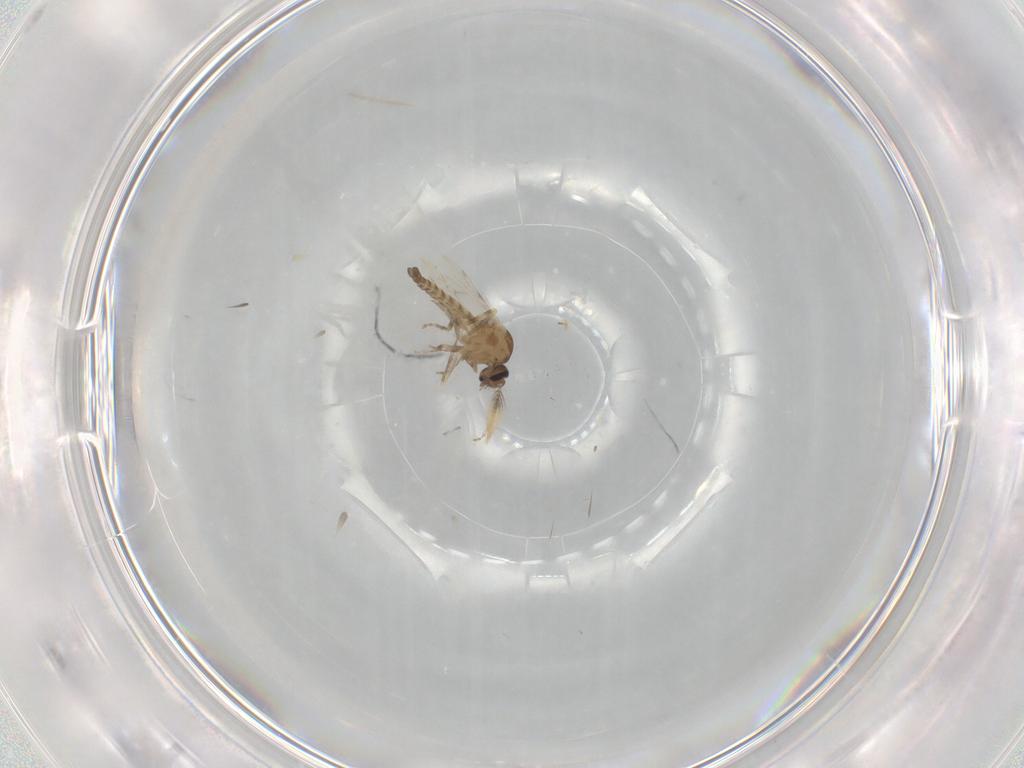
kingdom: Animalia
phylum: Arthropoda
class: Insecta
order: Diptera
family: Ceratopogonidae
